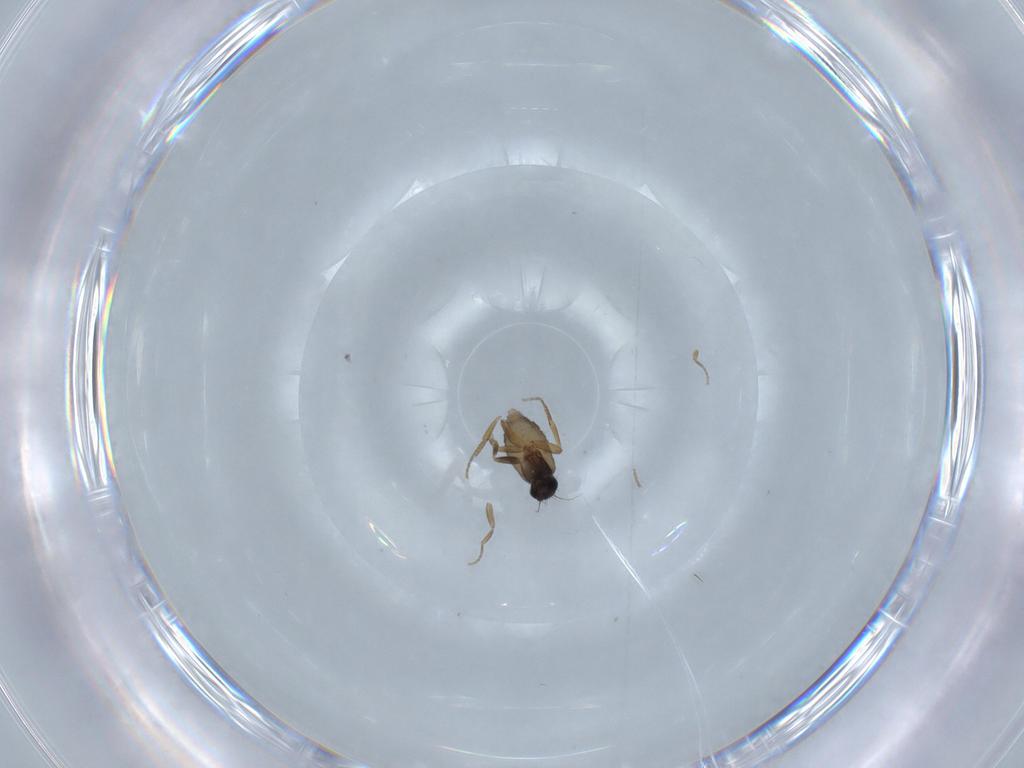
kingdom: Animalia
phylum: Arthropoda
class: Insecta
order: Diptera
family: Phoridae
